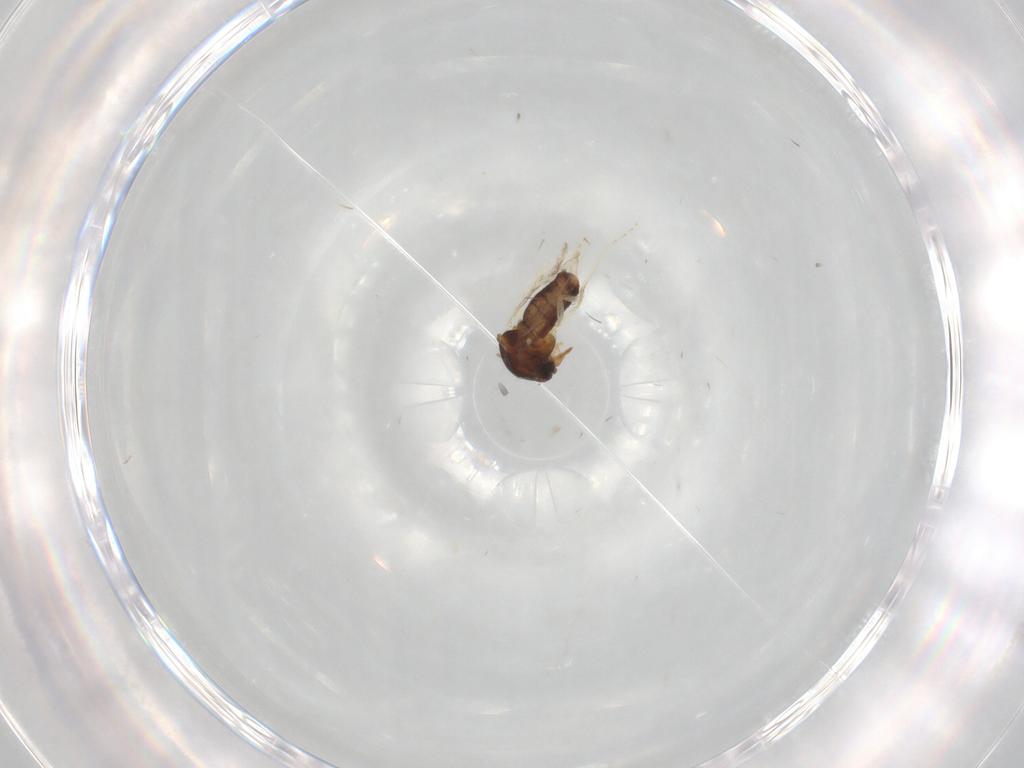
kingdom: Animalia
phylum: Arthropoda
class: Insecta
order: Diptera
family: Ceratopogonidae
